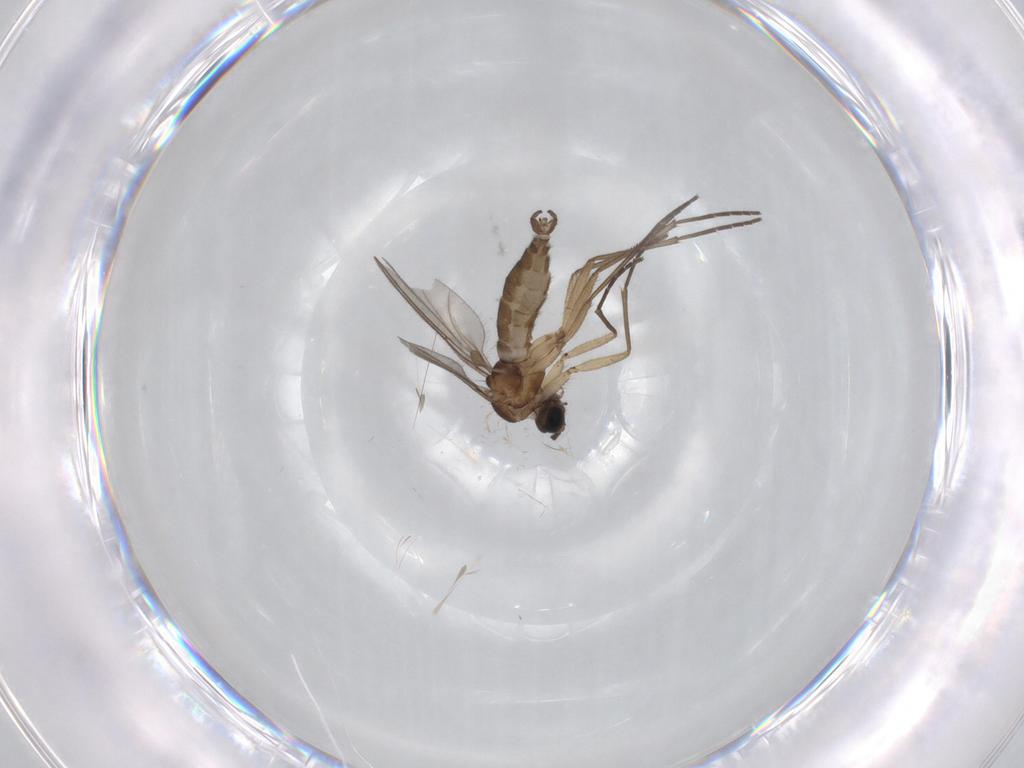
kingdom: Animalia
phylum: Arthropoda
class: Insecta
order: Diptera
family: Sciaridae
